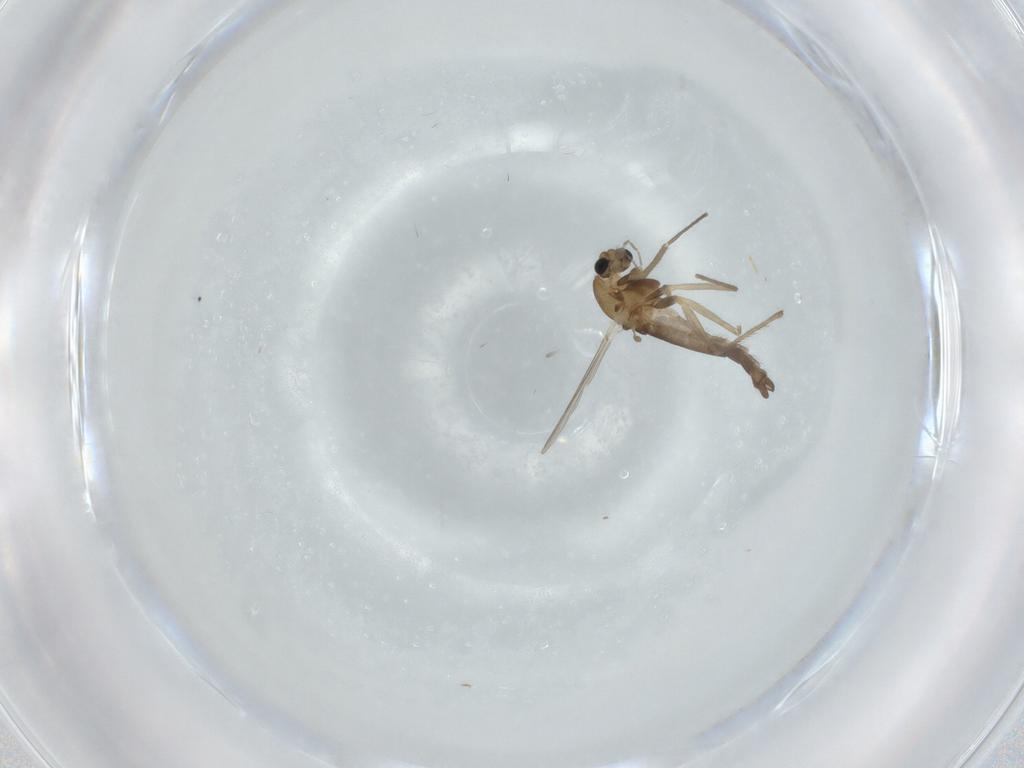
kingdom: Animalia
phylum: Arthropoda
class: Insecta
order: Diptera
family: Chironomidae
